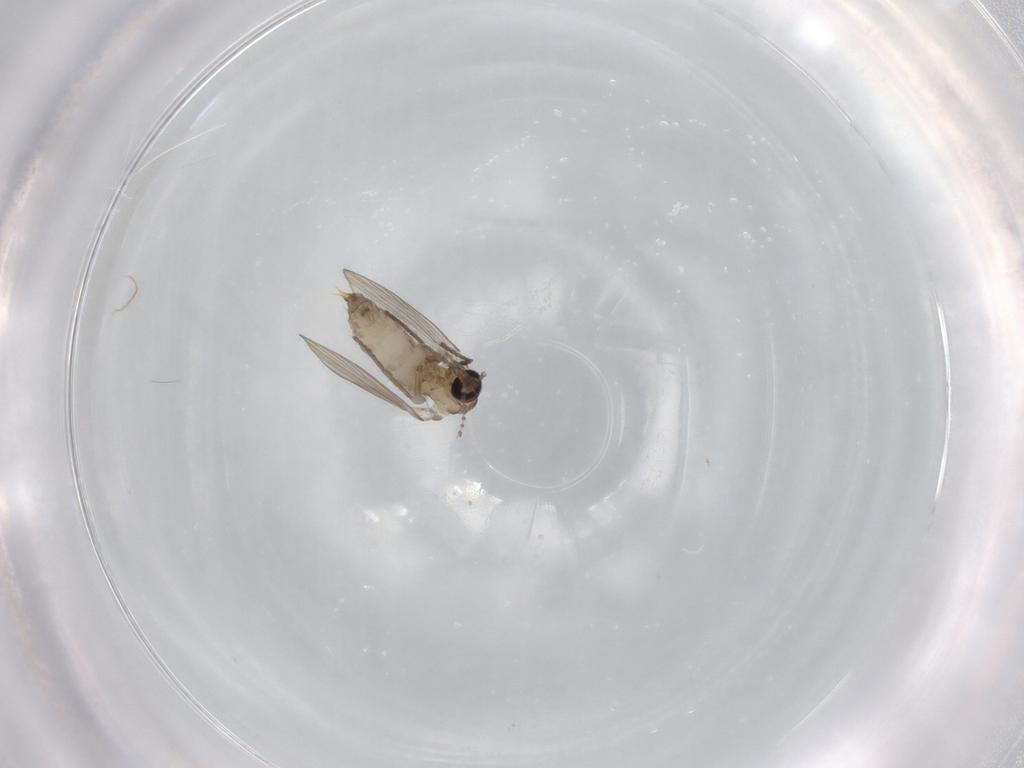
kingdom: Animalia
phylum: Arthropoda
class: Insecta
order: Diptera
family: Psychodidae
